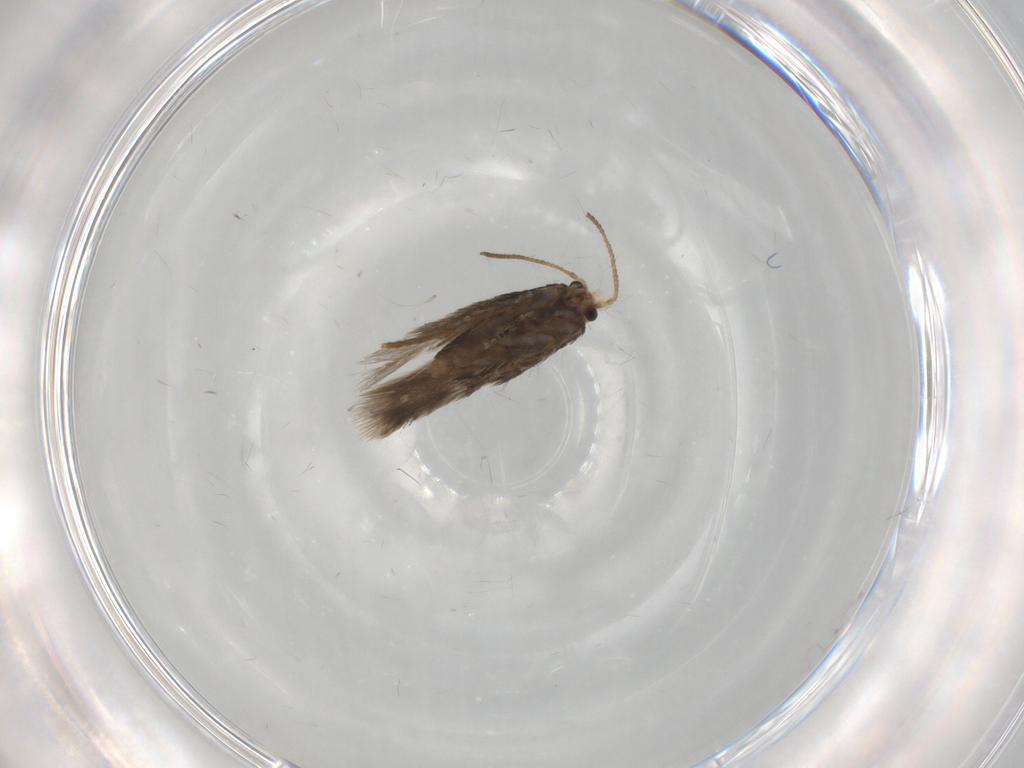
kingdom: Animalia
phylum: Arthropoda
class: Insecta
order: Lepidoptera
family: Nepticulidae
